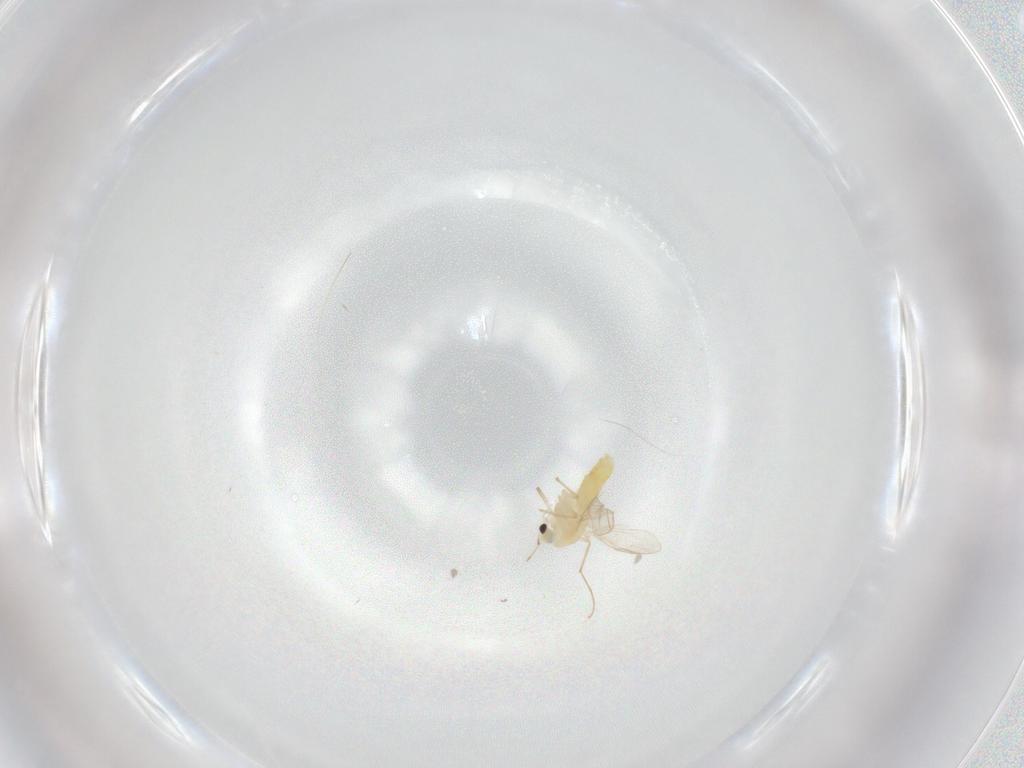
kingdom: Animalia
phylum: Arthropoda
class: Insecta
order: Diptera
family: Chironomidae
